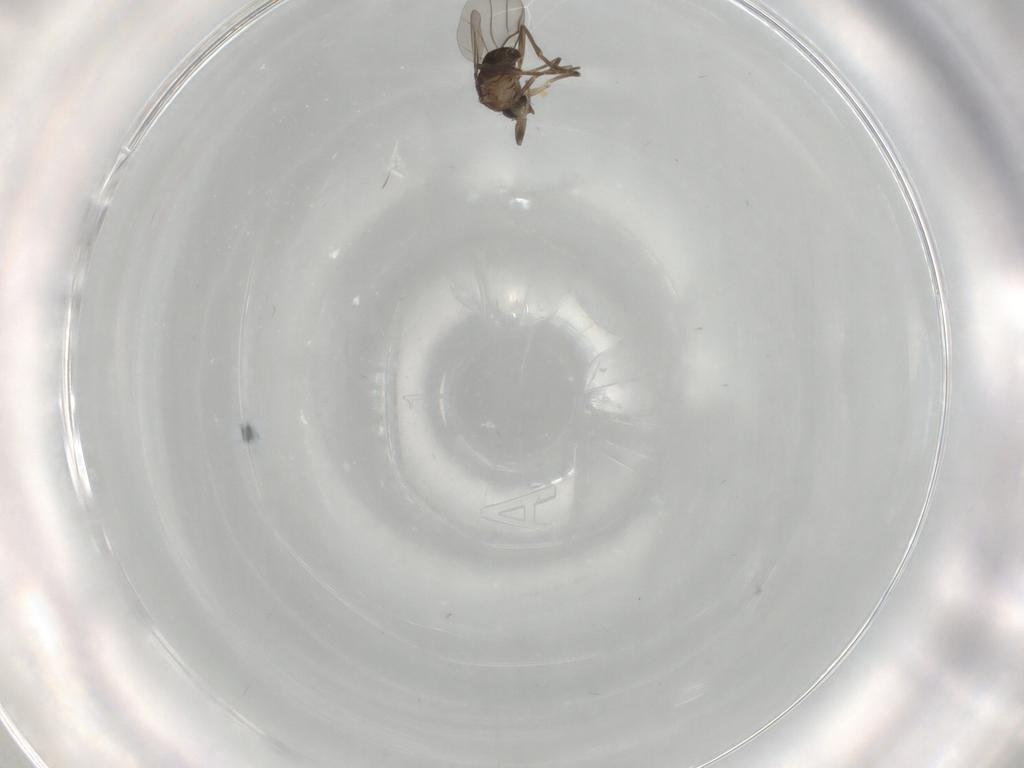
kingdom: Animalia
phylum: Arthropoda
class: Insecta
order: Diptera
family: Phoridae
